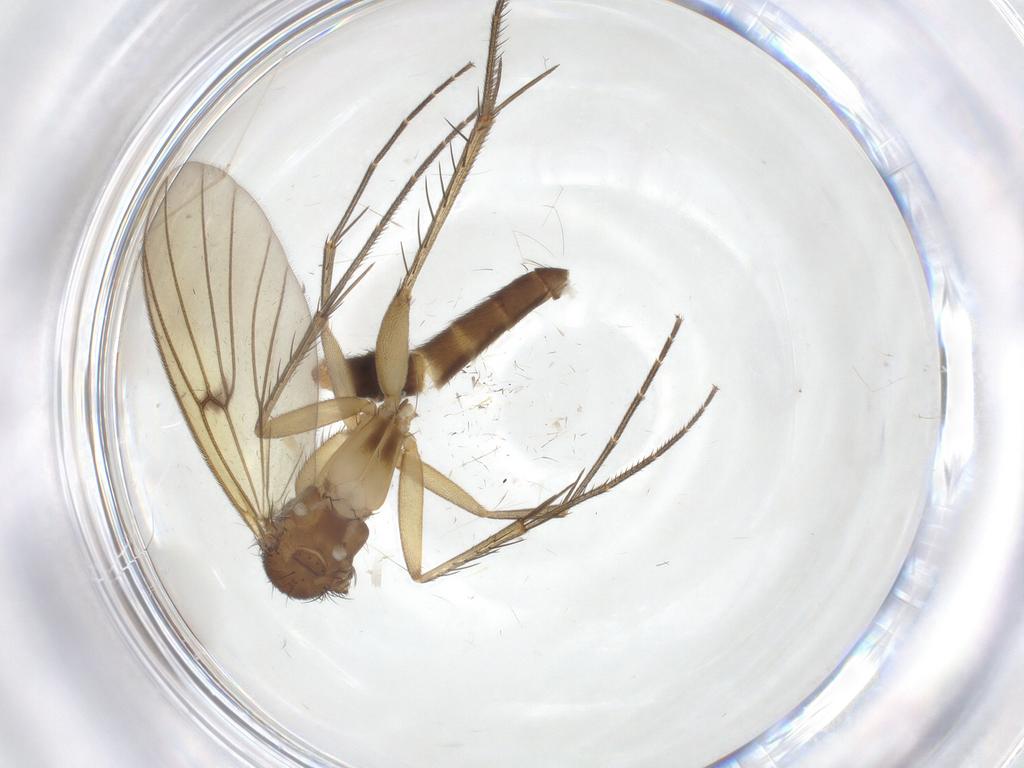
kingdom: Animalia
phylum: Arthropoda
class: Insecta
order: Diptera
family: Mycetophilidae
